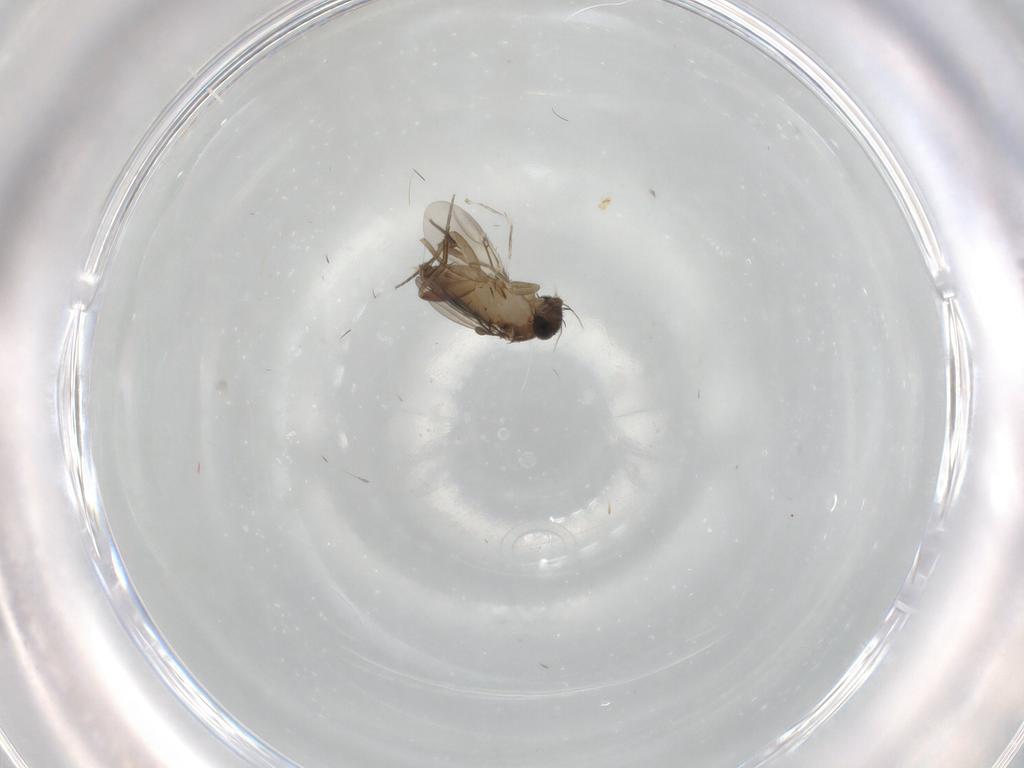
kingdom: Animalia
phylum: Arthropoda
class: Insecta
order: Diptera
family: Phoridae
